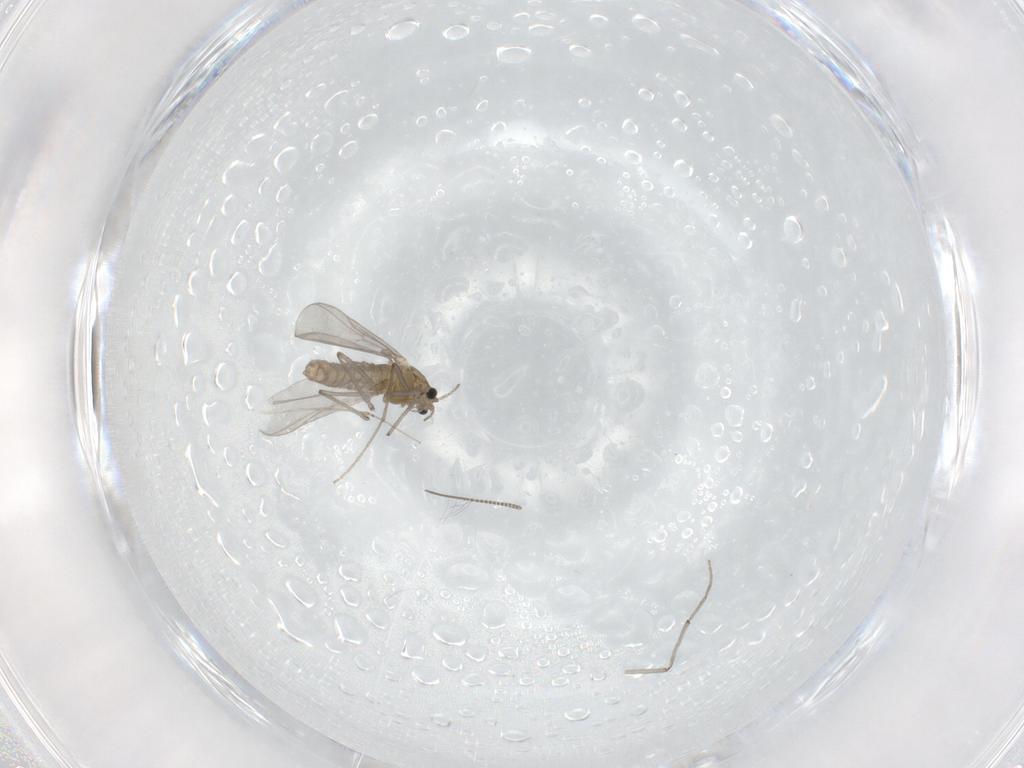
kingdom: Animalia
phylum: Arthropoda
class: Insecta
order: Diptera
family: Chironomidae
